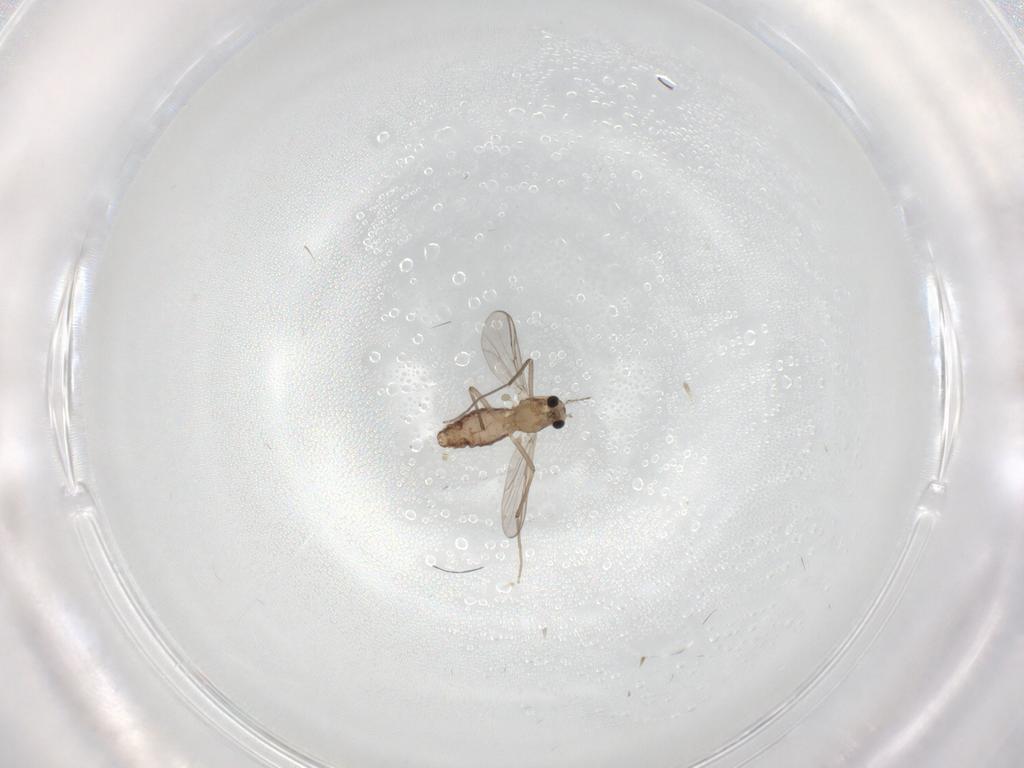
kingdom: Animalia
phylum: Arthropoda
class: Insecta
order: Diptera
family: Chironomidae
